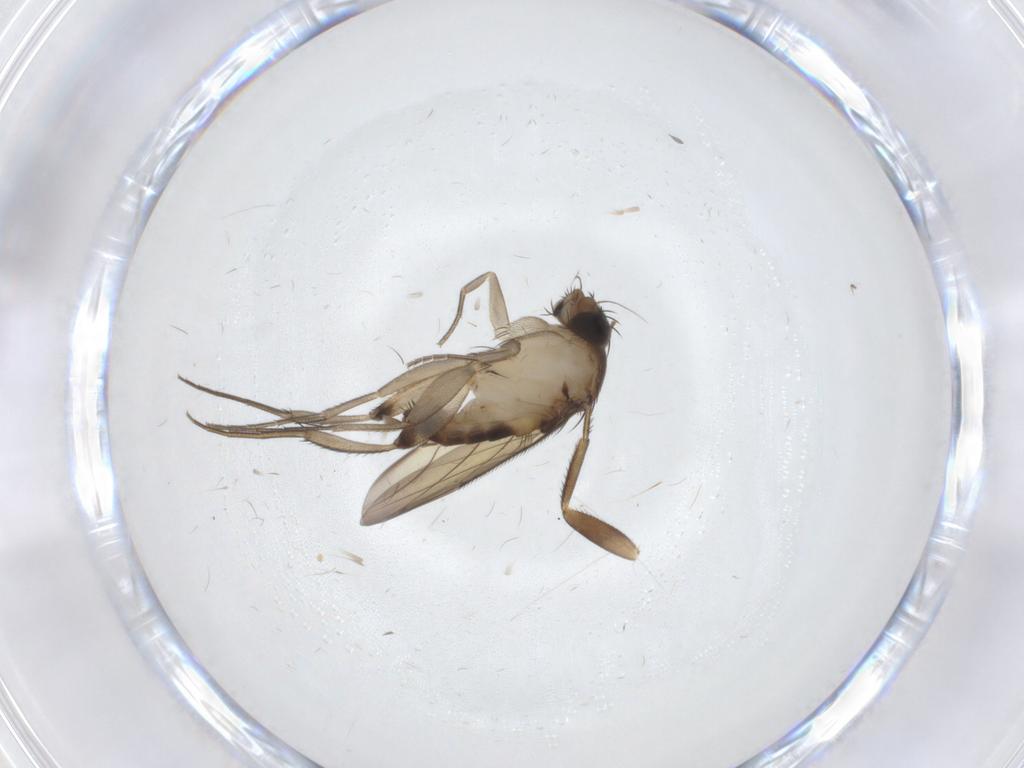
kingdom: Animalia
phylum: Arthropoda
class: Insecta
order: Diptera
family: Phoridae
